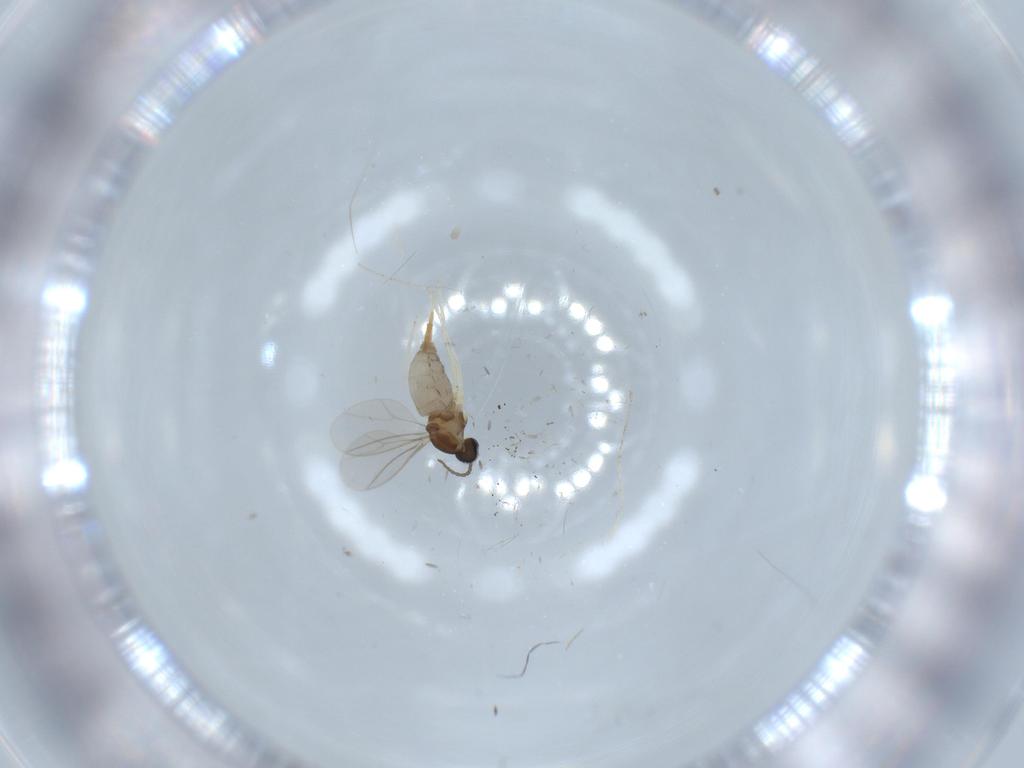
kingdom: Animalia
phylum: Arthropoda
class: Insecta
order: Diptera
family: Cecidomyiidae
